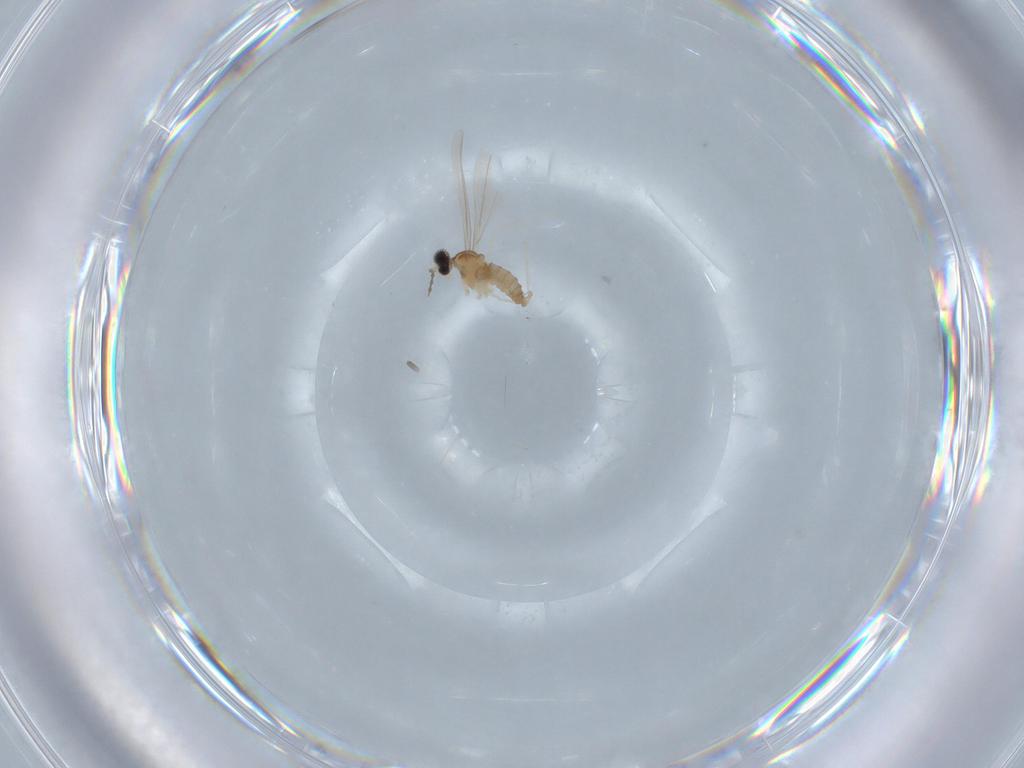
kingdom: Animalia
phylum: Arthropoda
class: Insecta
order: Diptera
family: Cecidomyiidae
